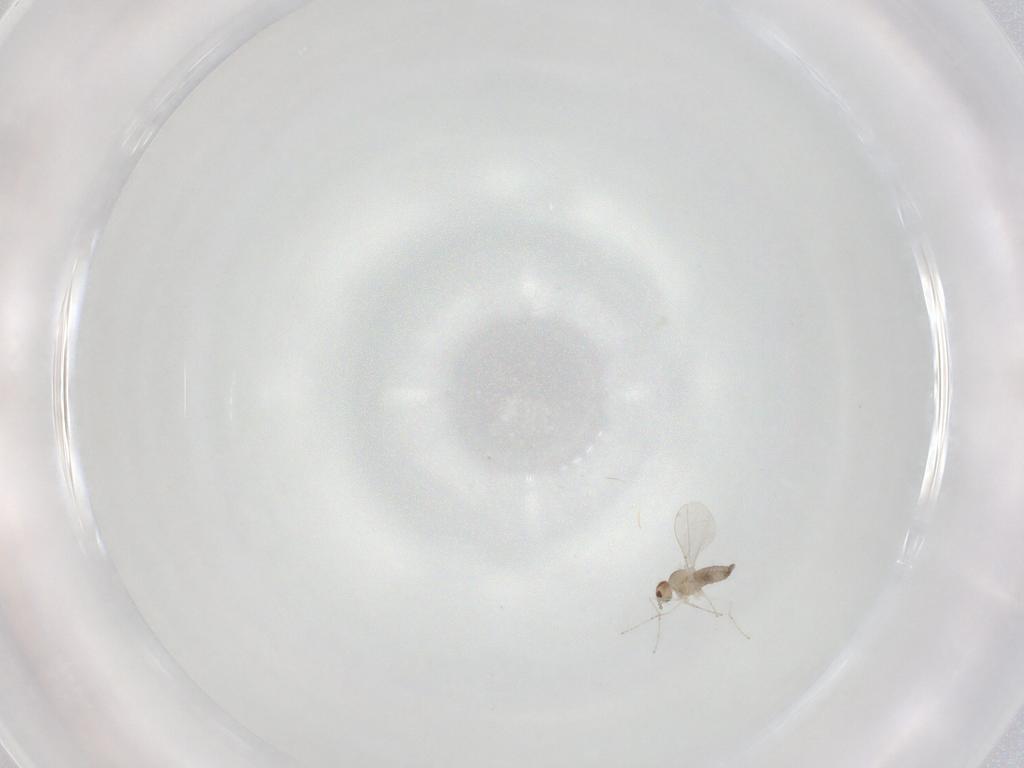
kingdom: Animalia
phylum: Arthropoda
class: Insecta
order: Diptera
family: Cecidomyiidae
